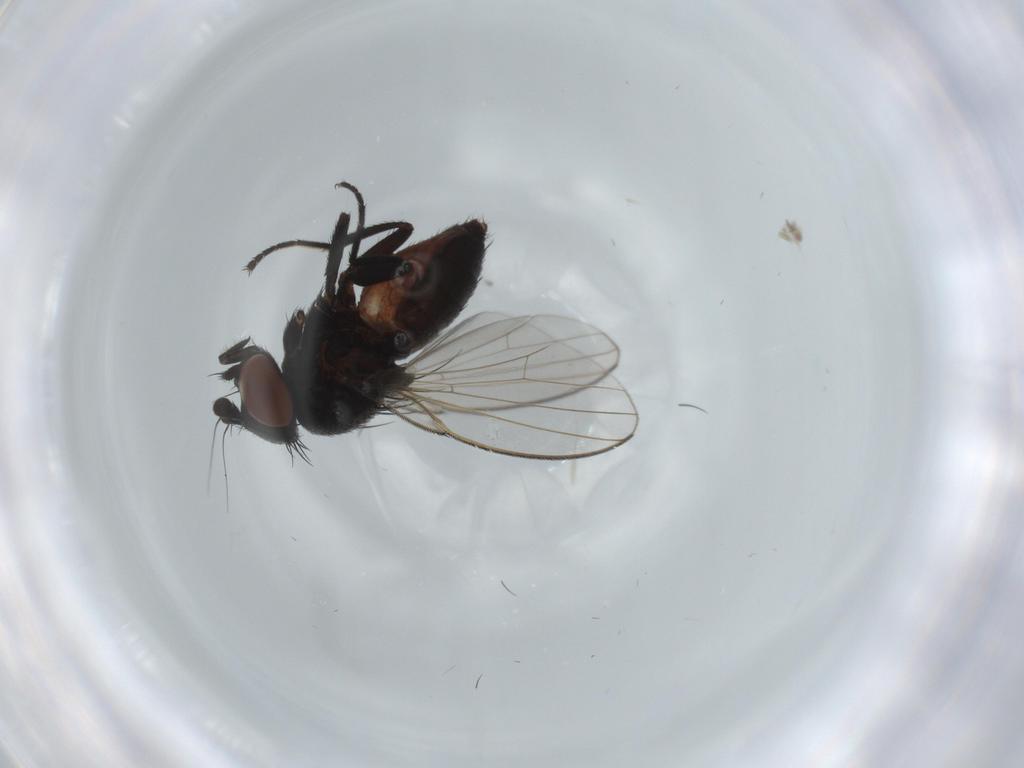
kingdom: Animalia
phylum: Arthropoda
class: Insecta
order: Diptera
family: Milichiidae
